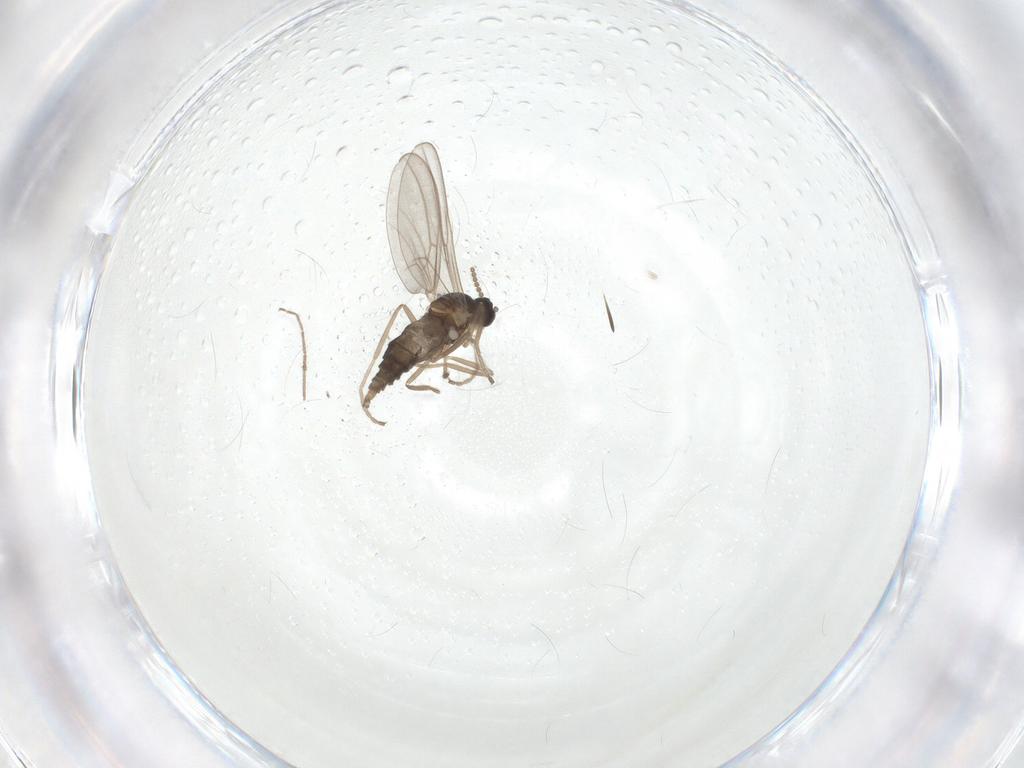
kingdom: Animalia
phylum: Arthropoda
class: Insecta
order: Diptera
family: Cecidomyiidae
